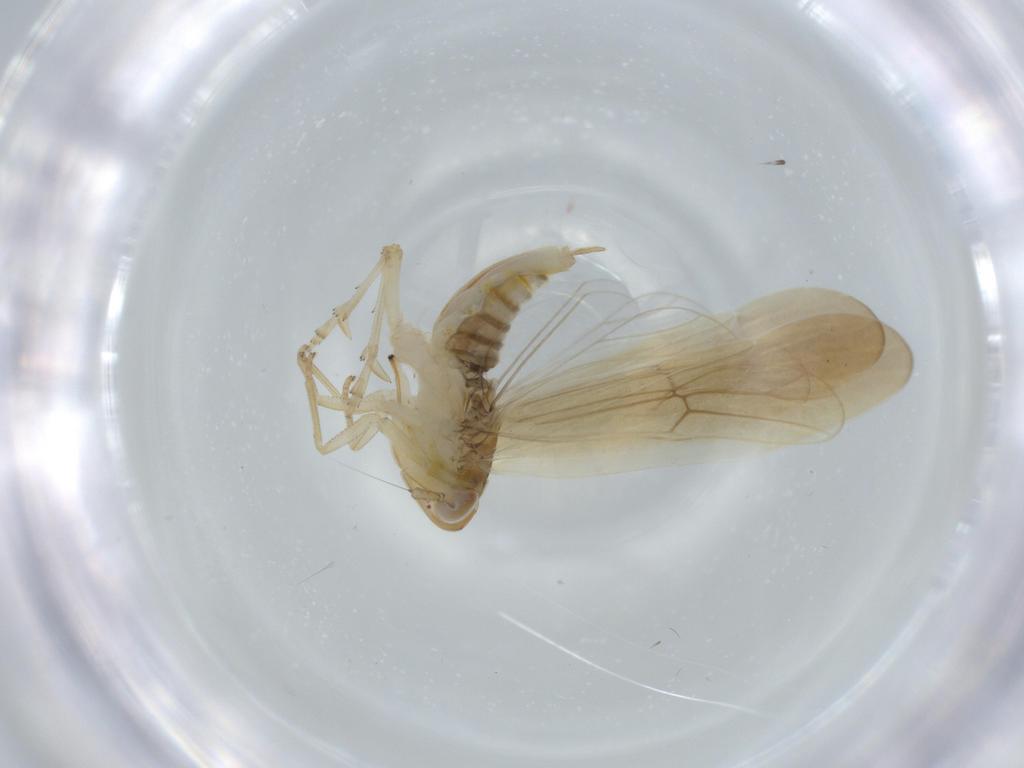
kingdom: Animalia
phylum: Arthropoda
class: Insecta
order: Hemiptera
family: Delphacidae
